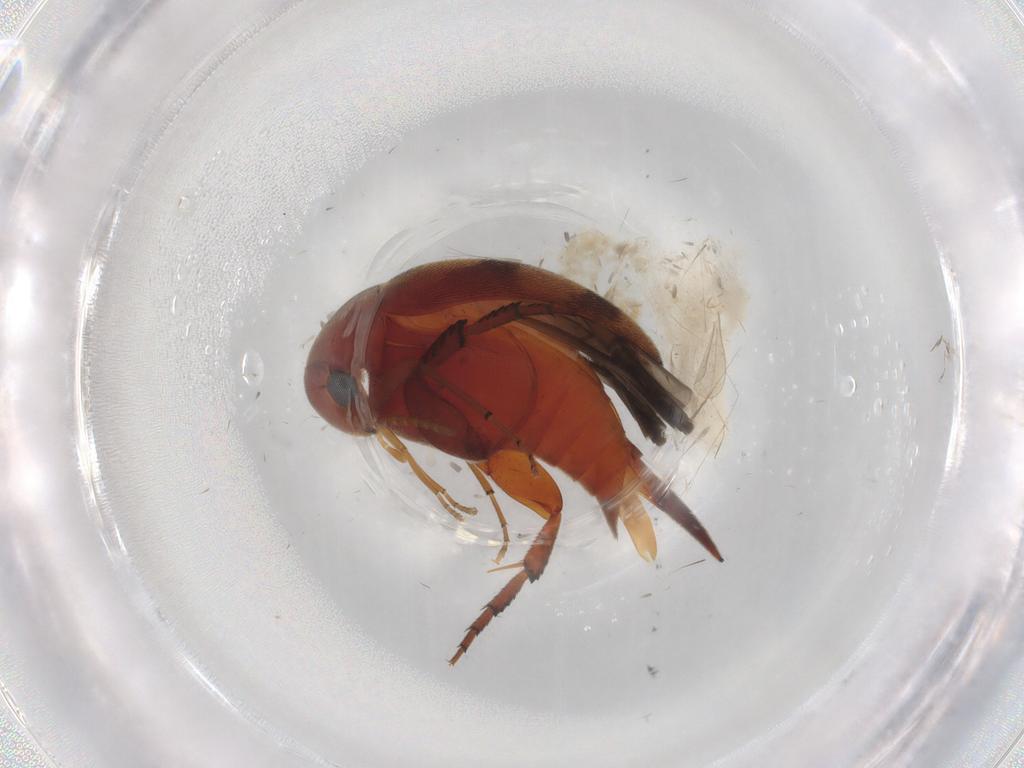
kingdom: Animalia
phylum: Arthropoda
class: Insecta
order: Coleoptera
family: Mordellidae
